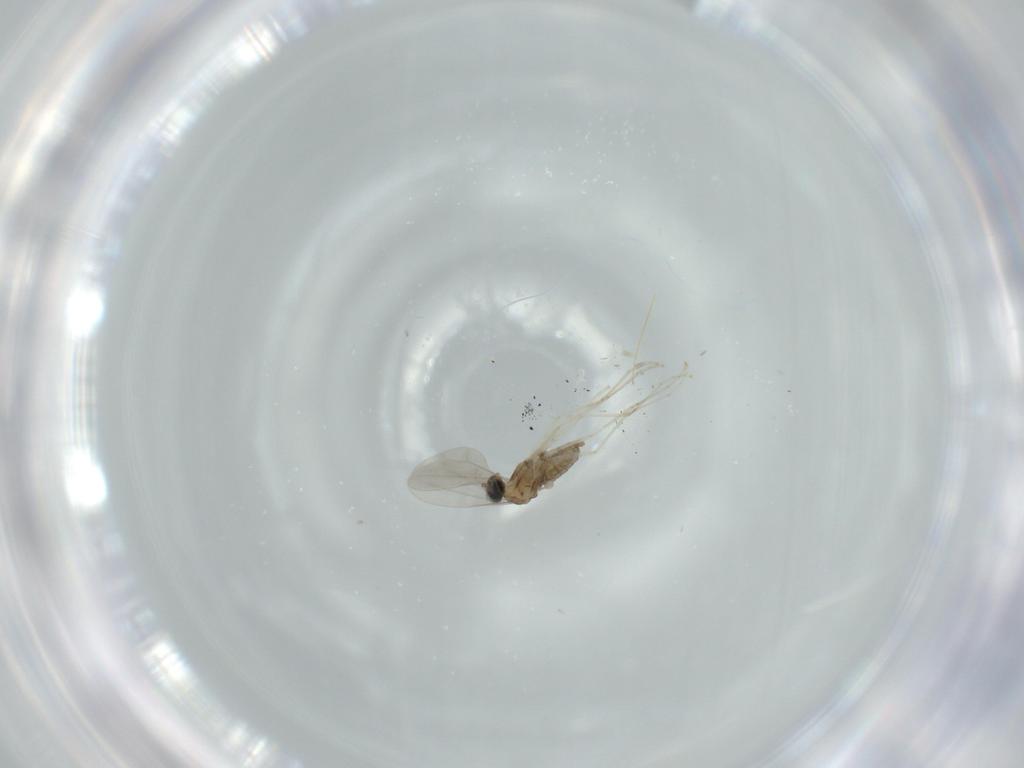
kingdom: Animalia
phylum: Arthropoda
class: Insecta
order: Diptera
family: Cecidomyiidae
